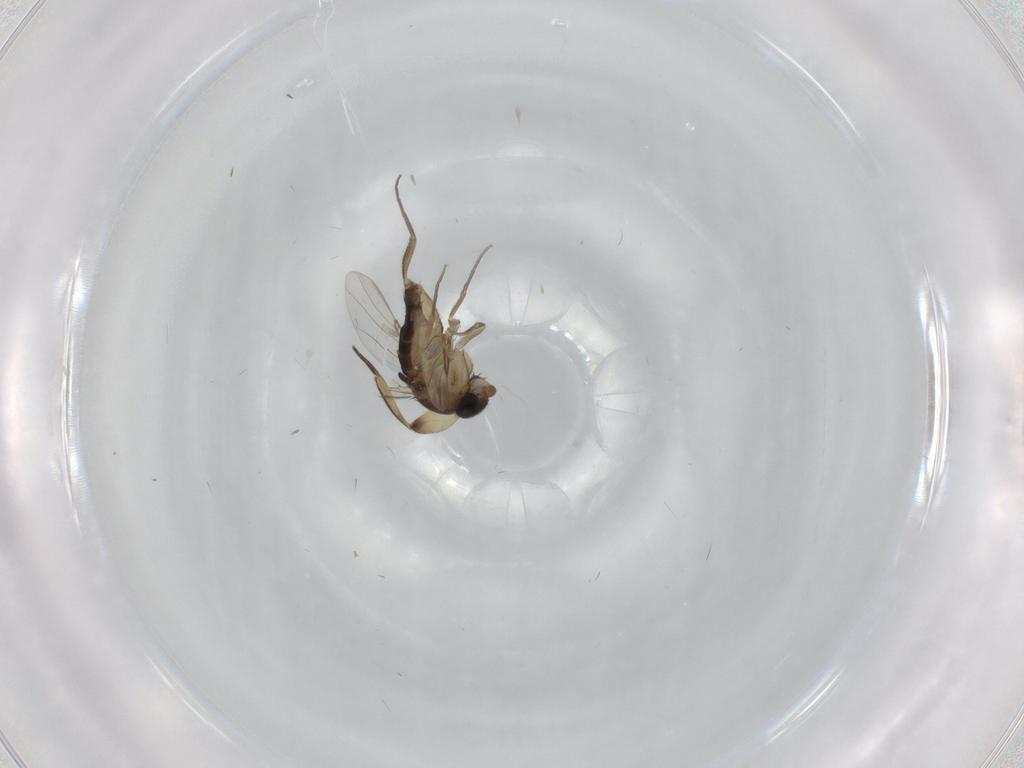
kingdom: Animalia
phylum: Arthropoda
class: Insecta
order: Diptera
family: Phoridae
